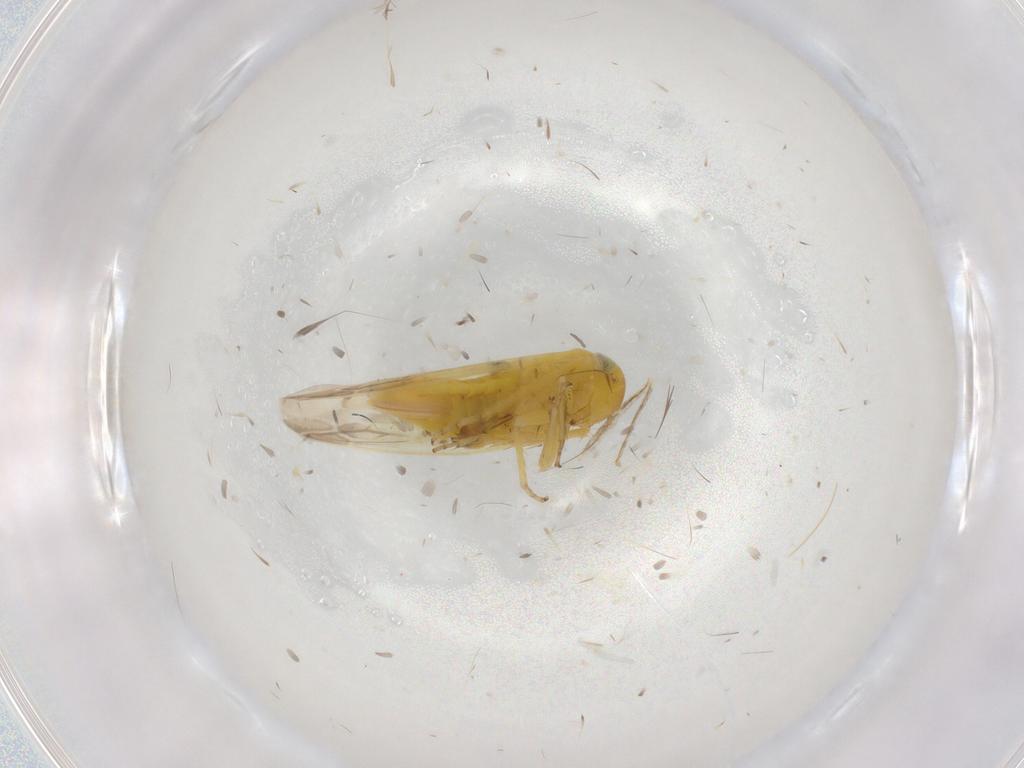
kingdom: Animalia
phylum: Arthropoda
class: Insecta
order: Hemiptera
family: Cicadellidae
